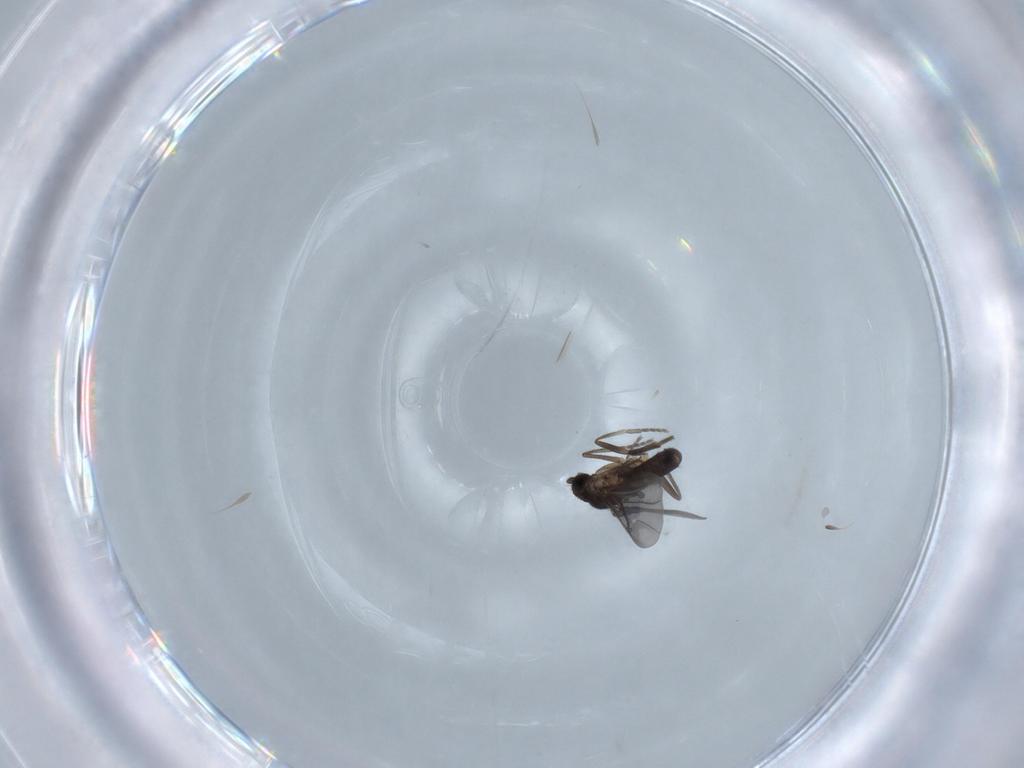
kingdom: Animalia
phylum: Arthropoda
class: Insecta
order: Diptera
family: Phoridae
